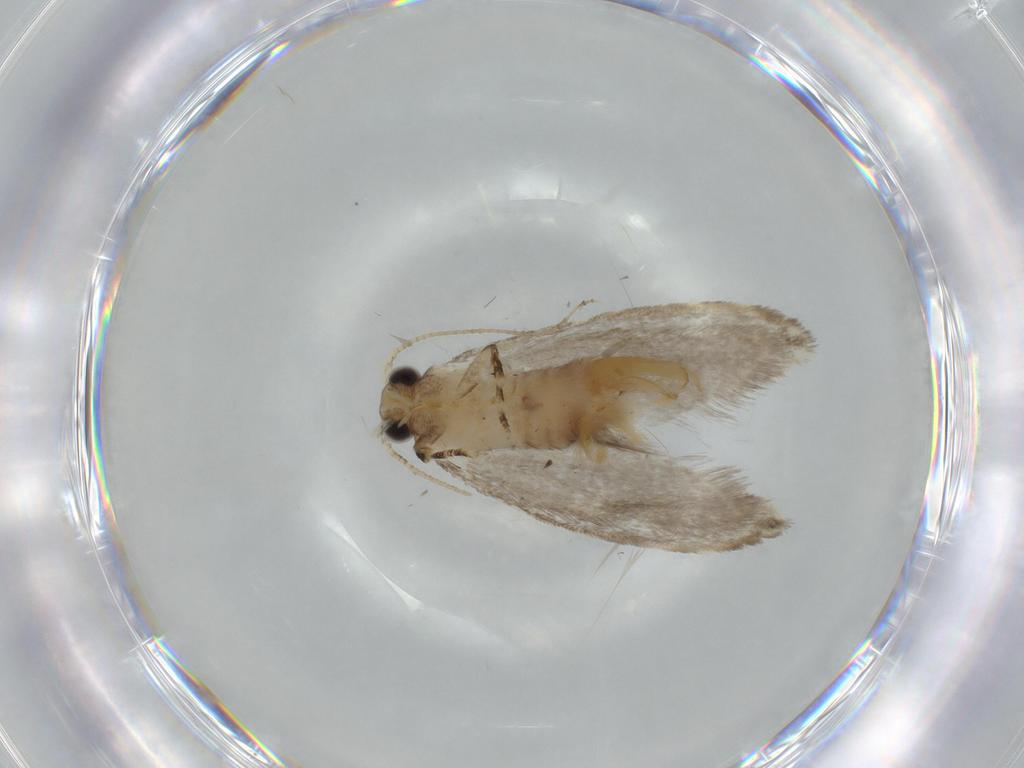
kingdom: Animalia
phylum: Arthropoda
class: Insecta
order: Lepidoptera
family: Tineidae
